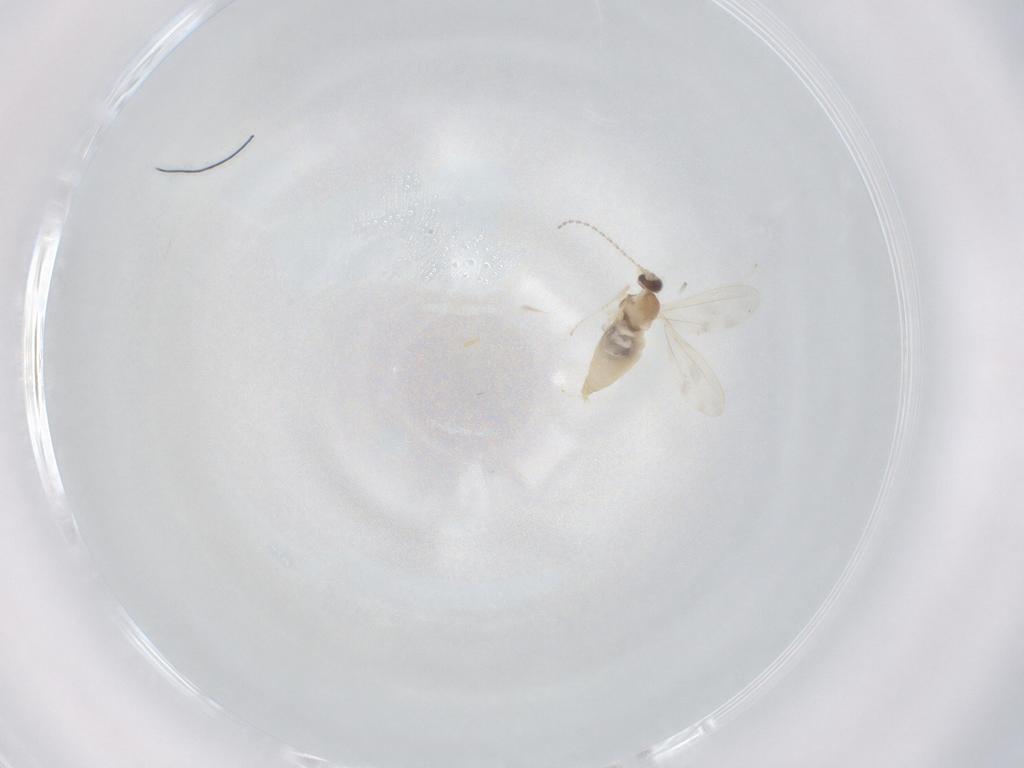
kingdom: Animalia
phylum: Arthropoda
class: Insecta
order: Diptera
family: Cecidomyiidae
